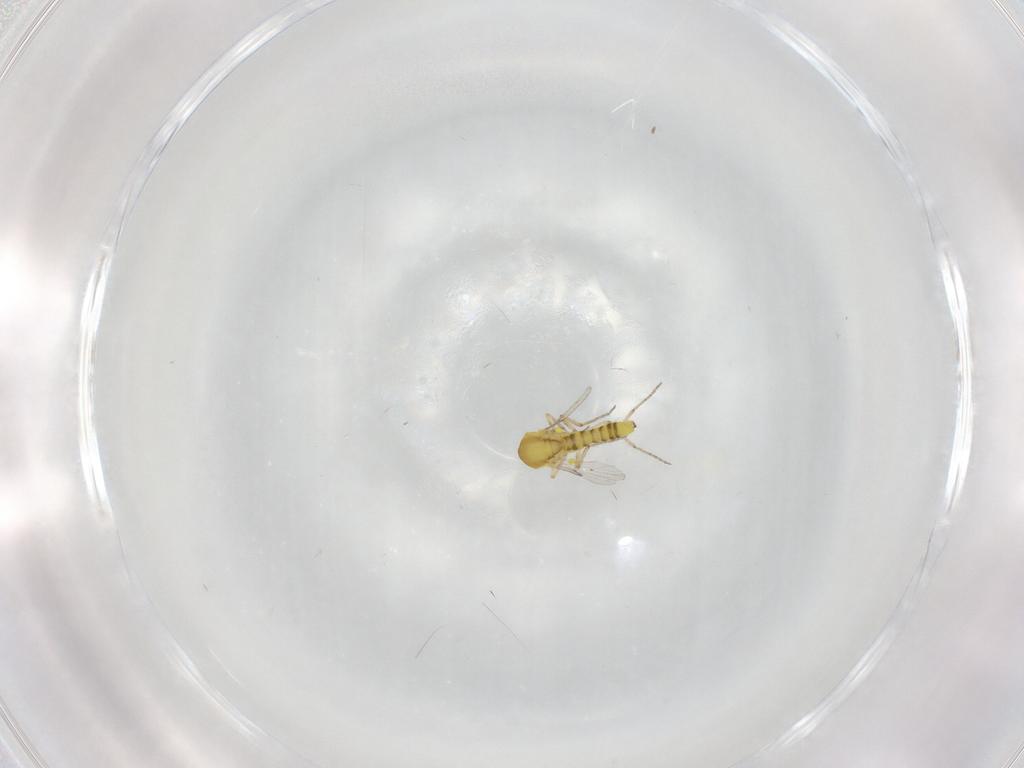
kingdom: Animalia
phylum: Arthropoda
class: Insecta
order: Diptera
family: Ceratopogonidae
